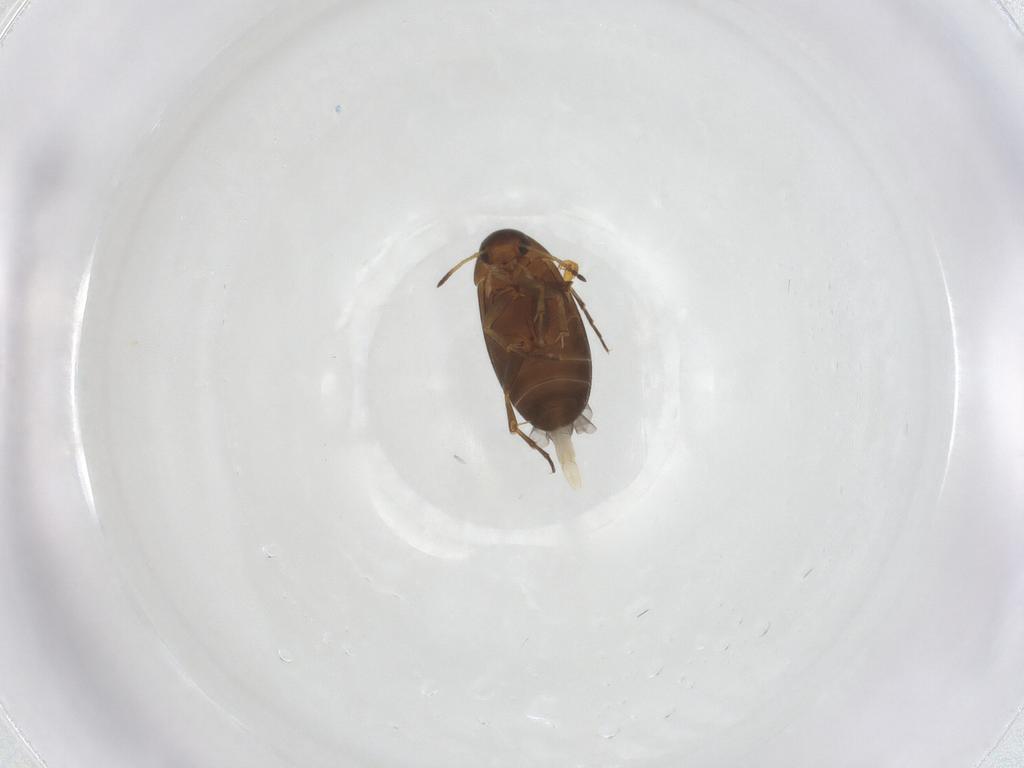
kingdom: Animalia
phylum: Arthropoda
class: Insecta
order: Coleoptera
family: Scraptiidae
